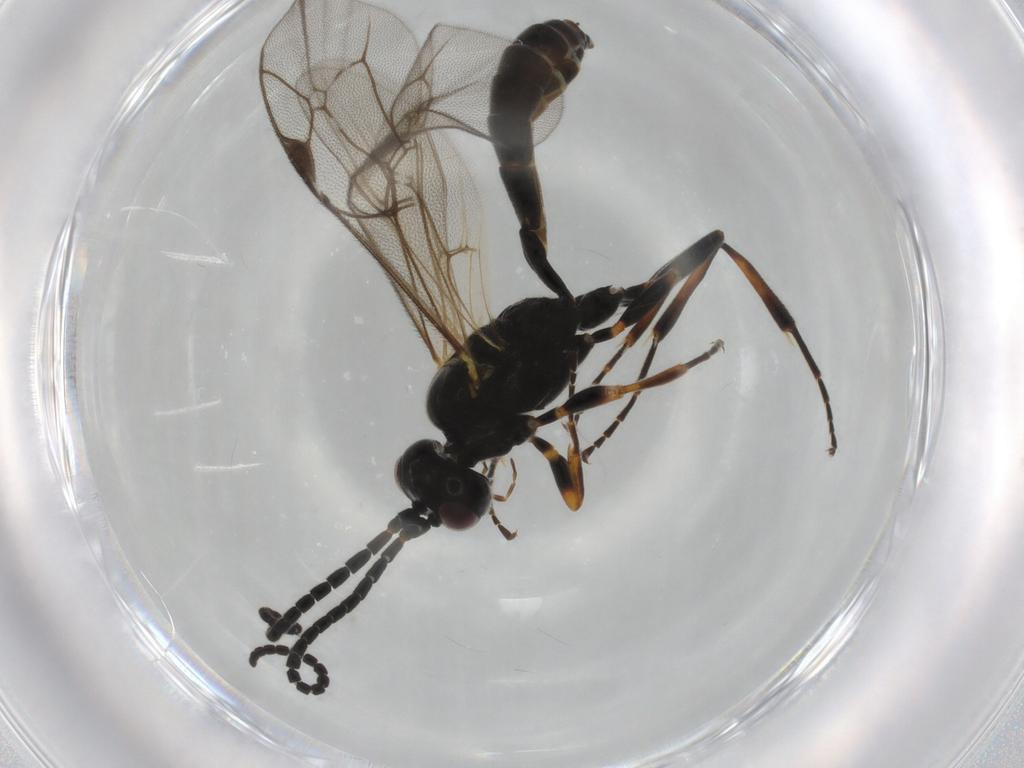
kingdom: Animalia
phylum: Arthropoda
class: Insecta
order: Hymenoptera
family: Ichneumonidae
